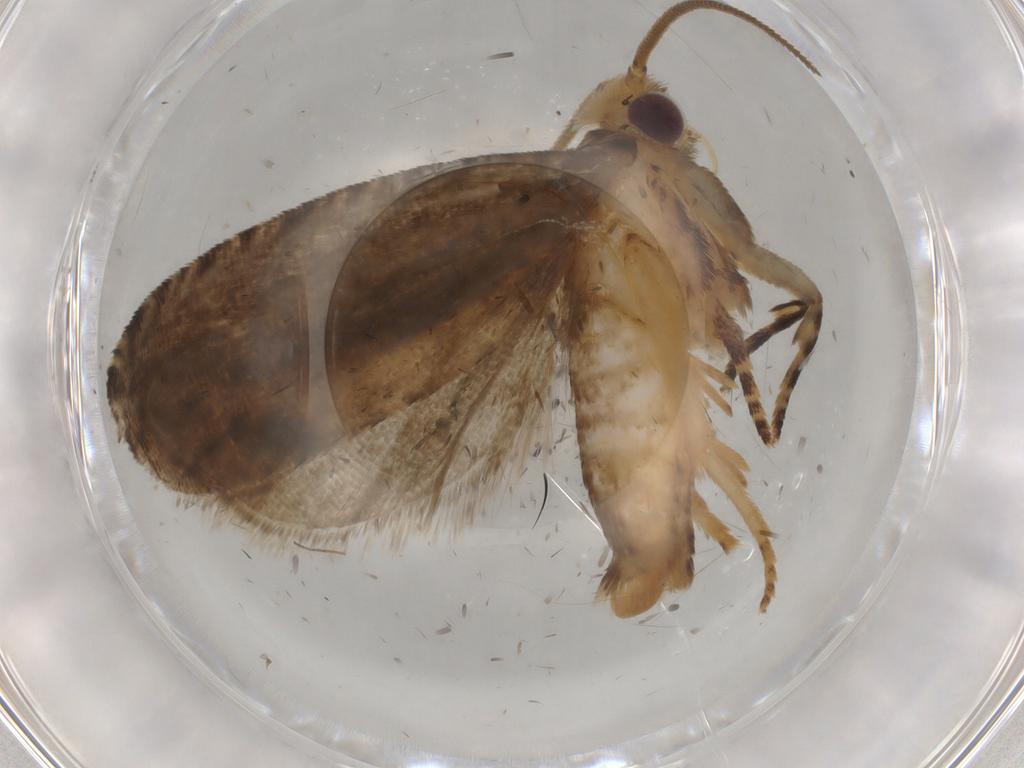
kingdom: Animalia
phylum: Arthropoda
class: Insecta
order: Lepidoptera
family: Tortricidae
